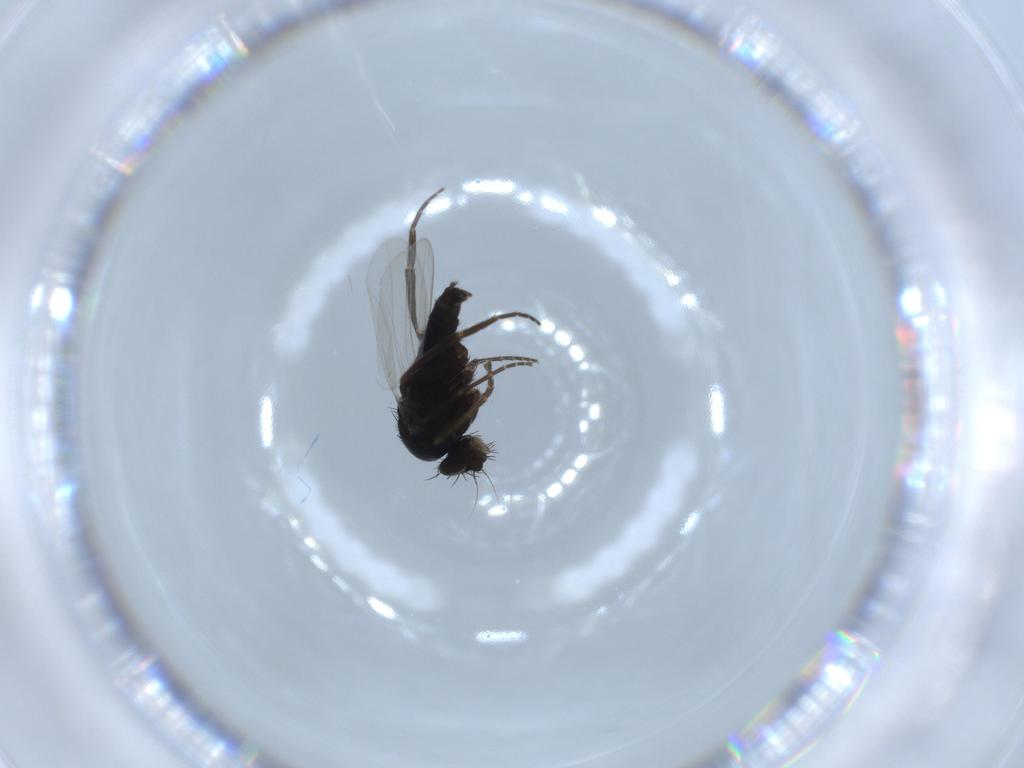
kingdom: Animalia
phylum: Arthropoda
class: Insecta
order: Diptera
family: Phoridae
